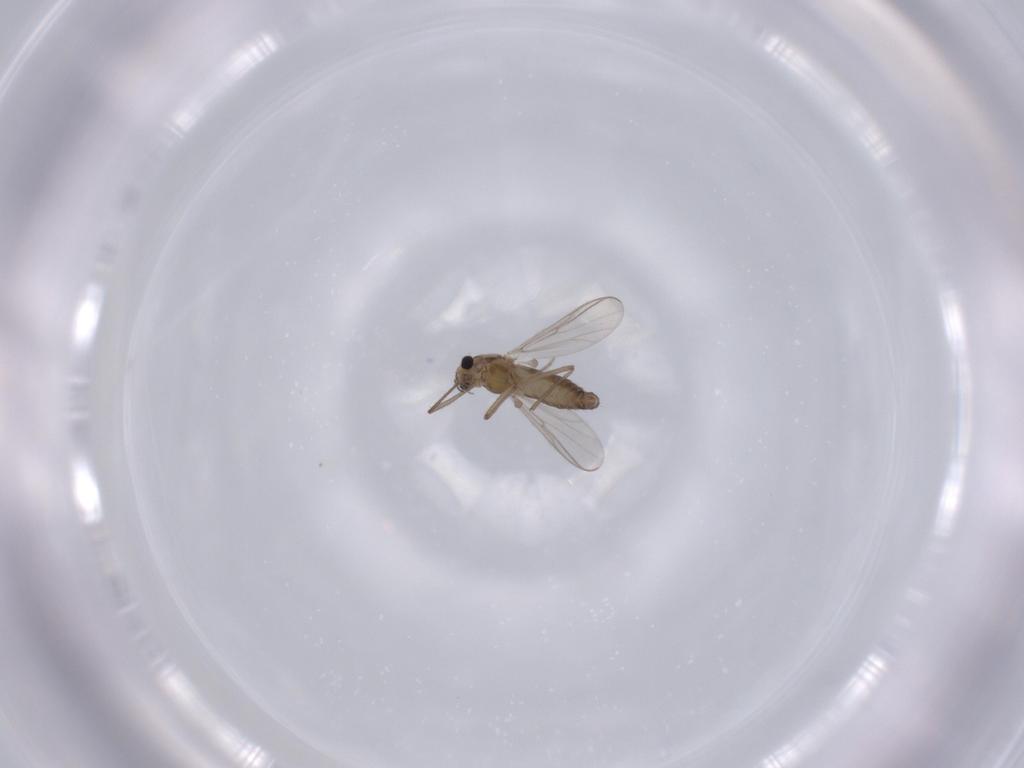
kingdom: Animalia
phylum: Arthropoda
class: Insecta
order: Diptera
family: Chironomidae
